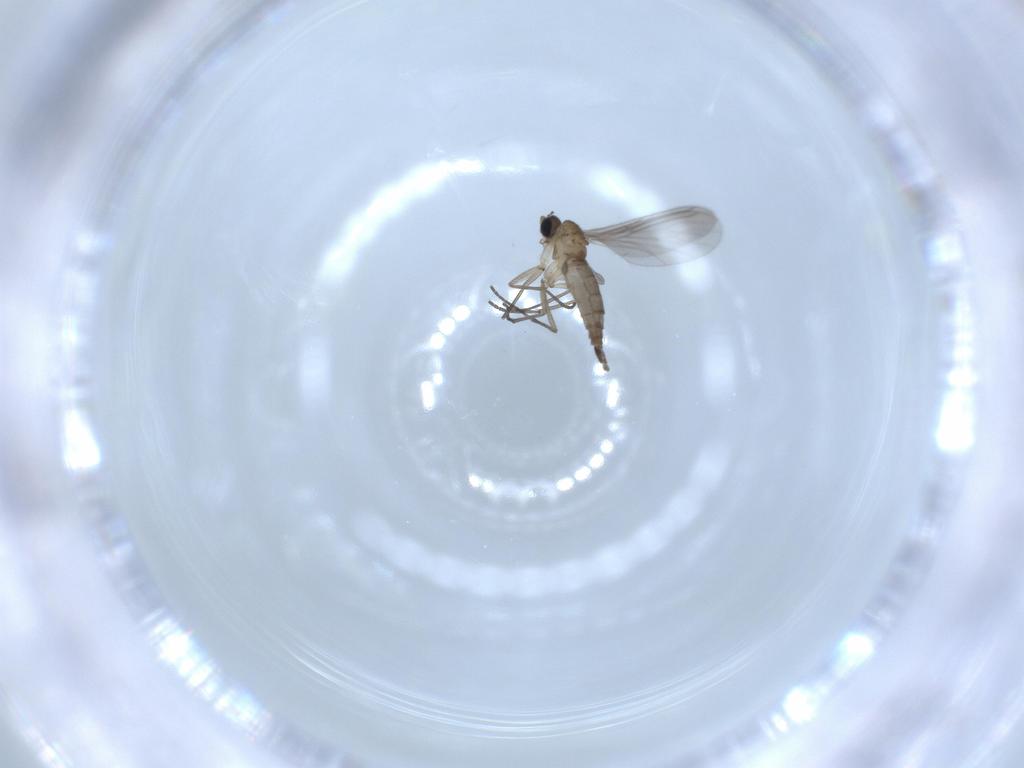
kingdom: Animalia
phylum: Arthropoda
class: Insecta
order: Diptera
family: Sciaridae
